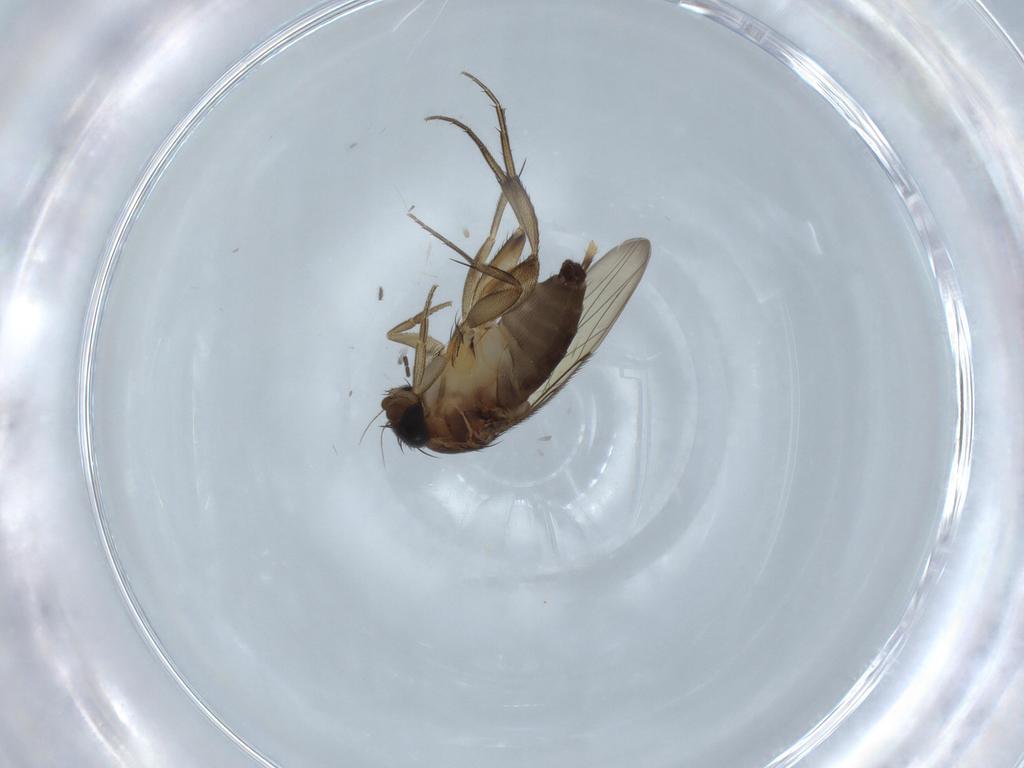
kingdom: Animalia
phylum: Arthropoda
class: Insecta
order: Diptera
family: Phoridae
